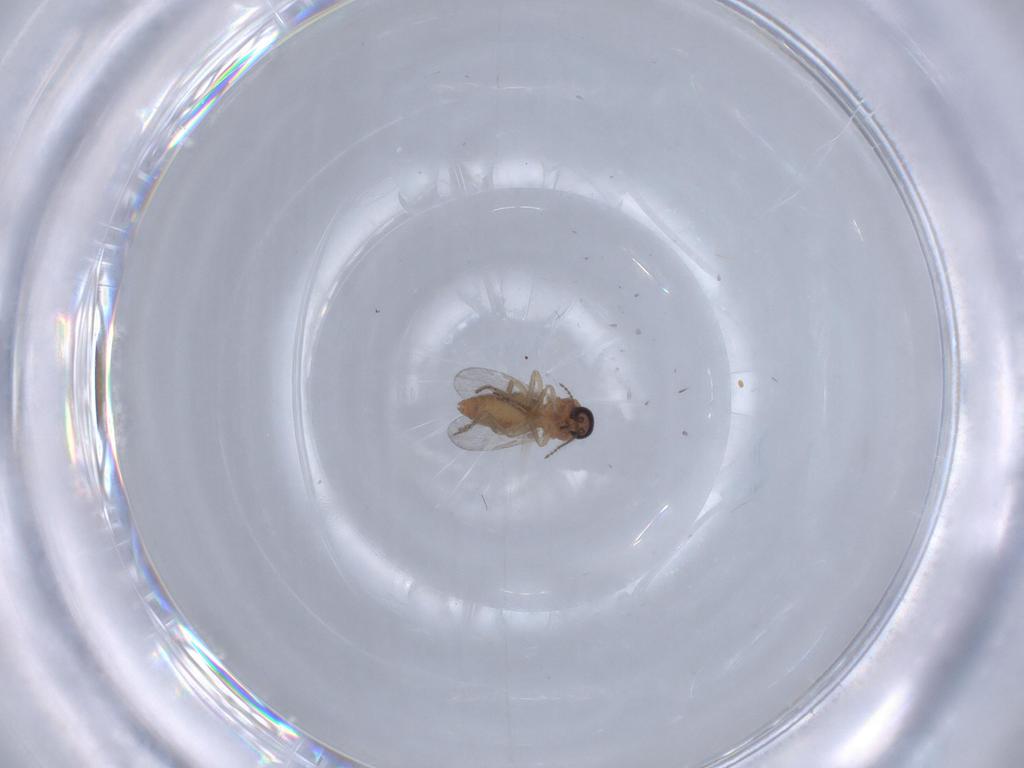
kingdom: Animalia
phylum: Arthropoda
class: Insecta
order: Diptera
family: Ceratopogonidae
